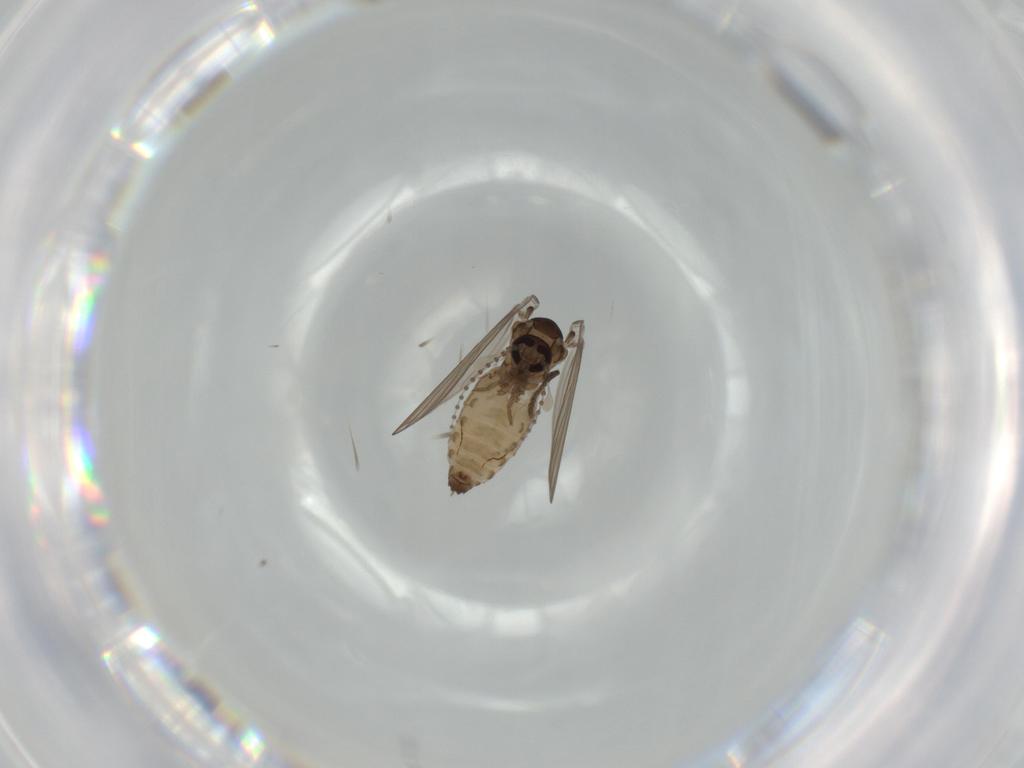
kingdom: Animalia
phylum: Arthropoda
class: Insecta
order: Diptera
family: Psychodidae
